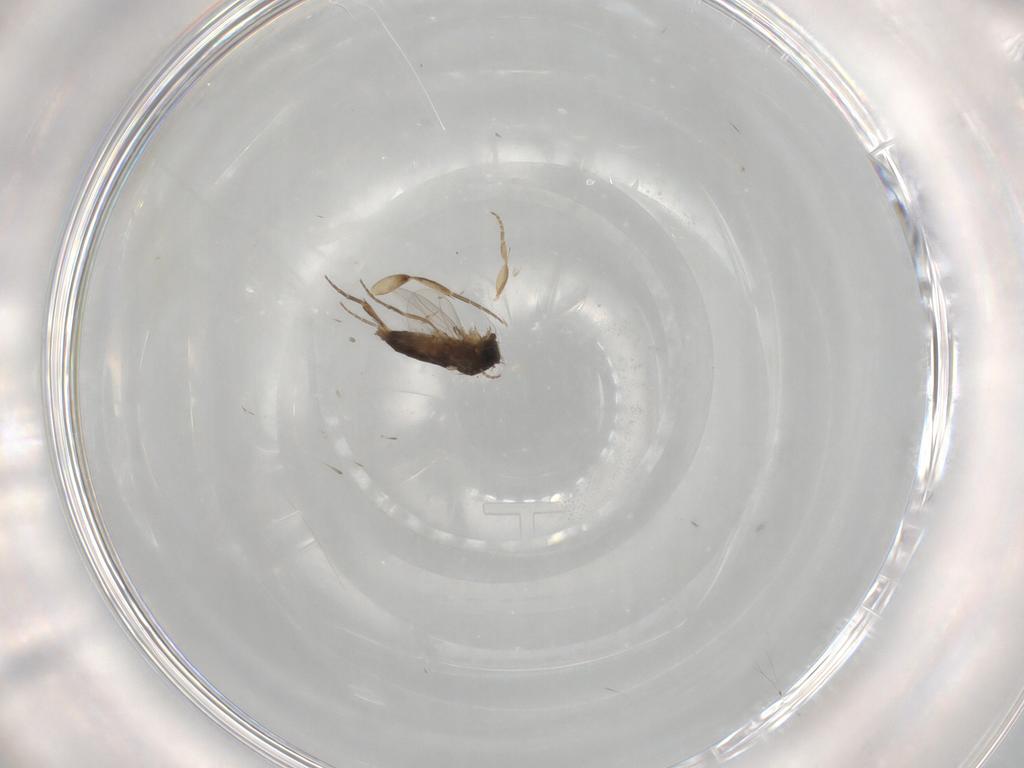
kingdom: Animalia
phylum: Arthropoda
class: Insecta
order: Diptera
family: Phoridae
